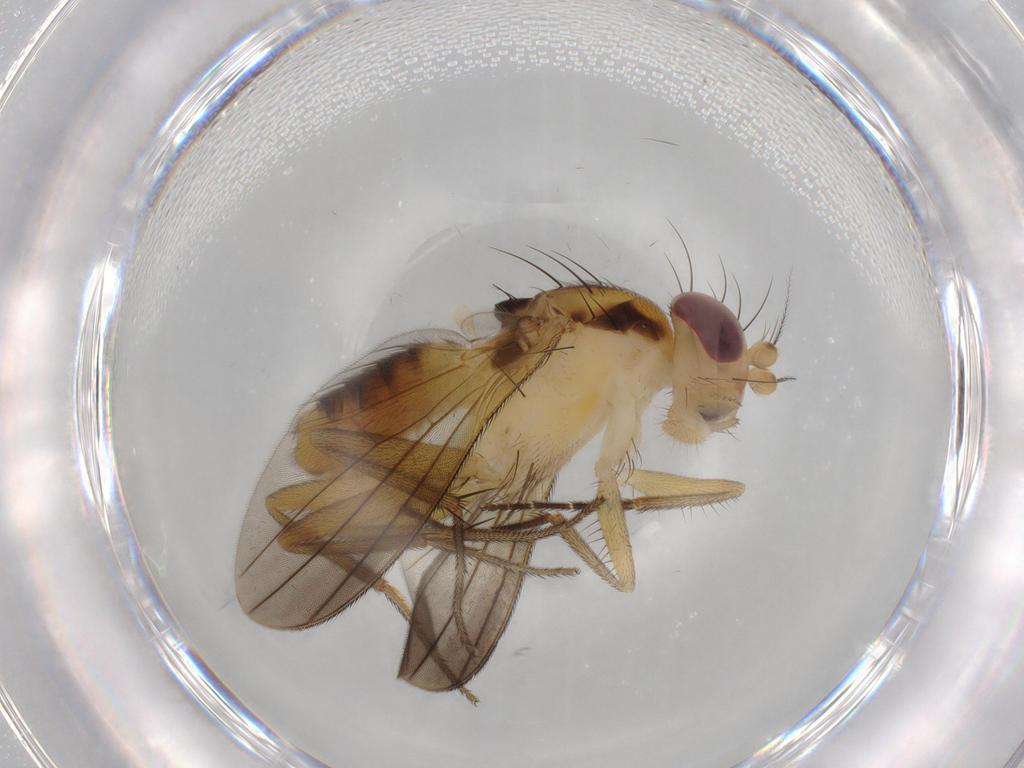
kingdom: Animalia
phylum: Arthropoda
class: Insecta
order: Diptera
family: Clusiidae
